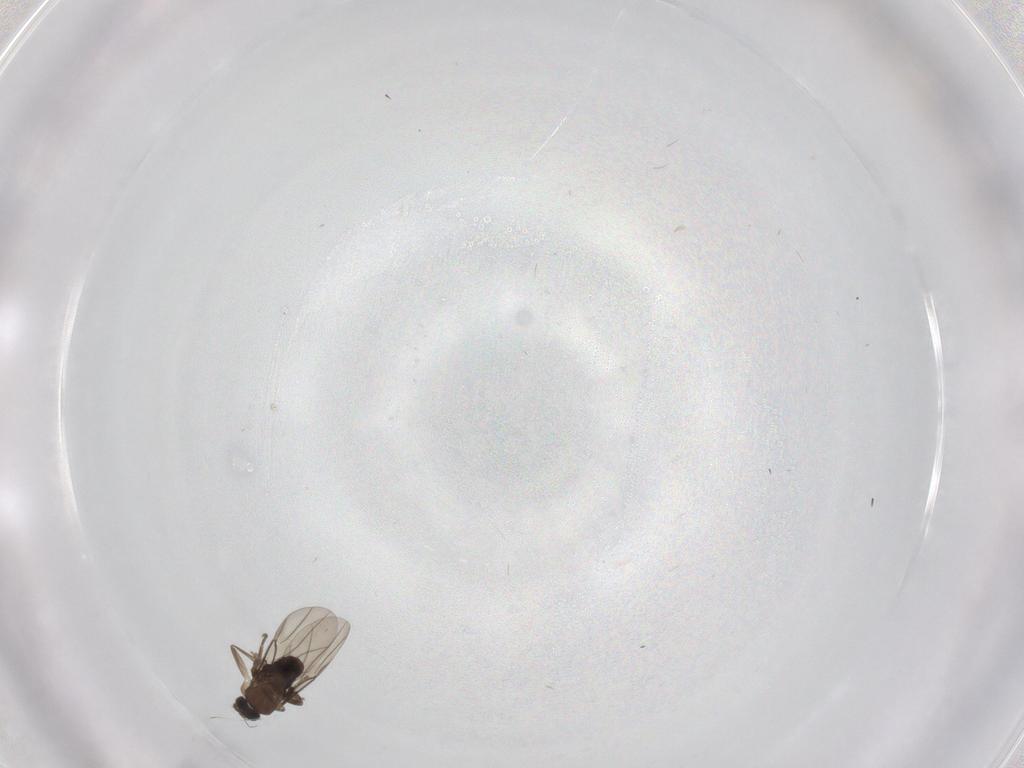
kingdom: Animalia
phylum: Arthropoda
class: Insecta
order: Diptera
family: Phoridae
